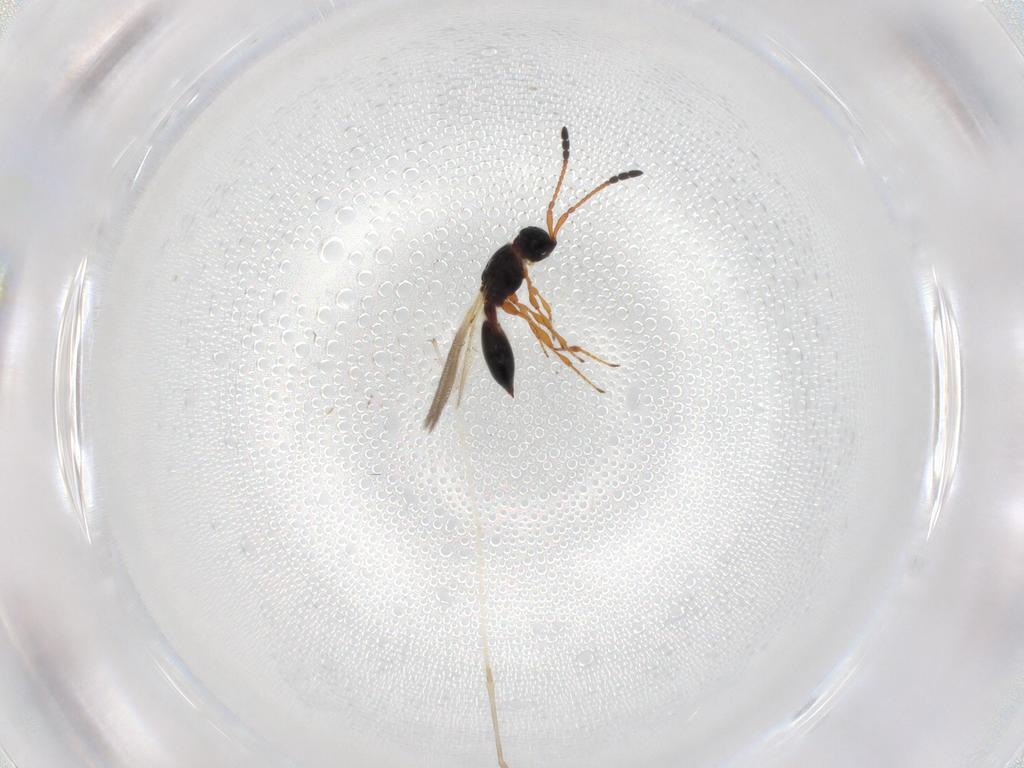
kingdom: Animalia
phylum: Arthropoda
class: Insecta
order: Hymenoptera
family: Diapriidae
